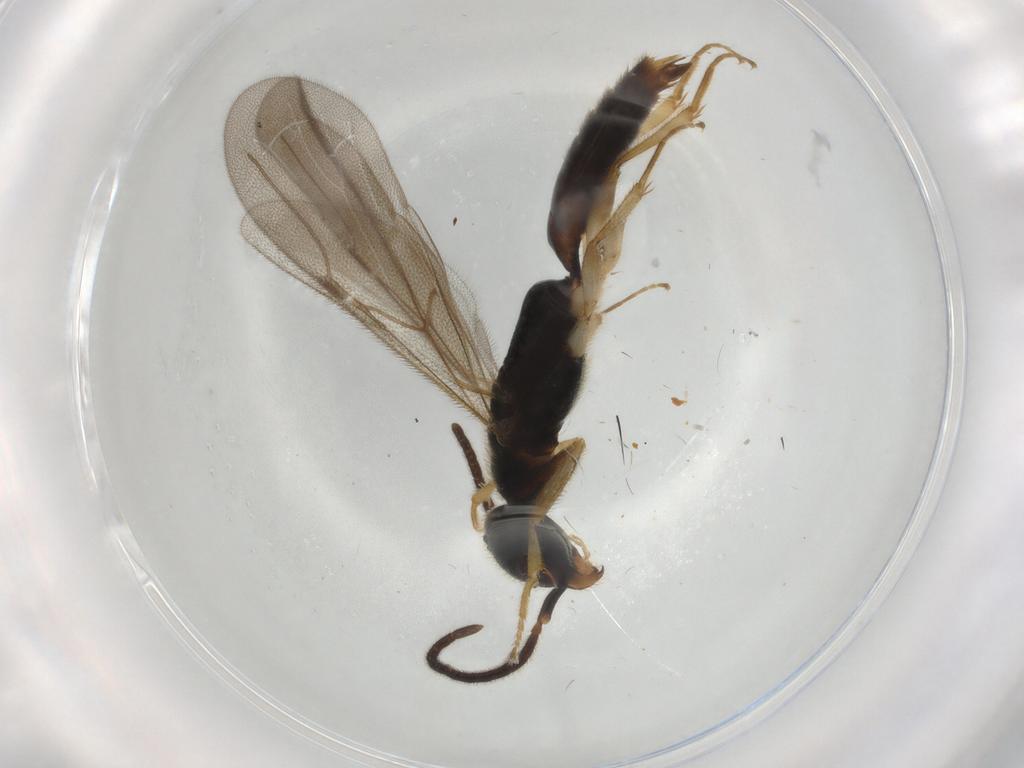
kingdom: Animalia
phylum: Arthropoda
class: Insecta
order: Hymenoptera
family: Bethylidae
